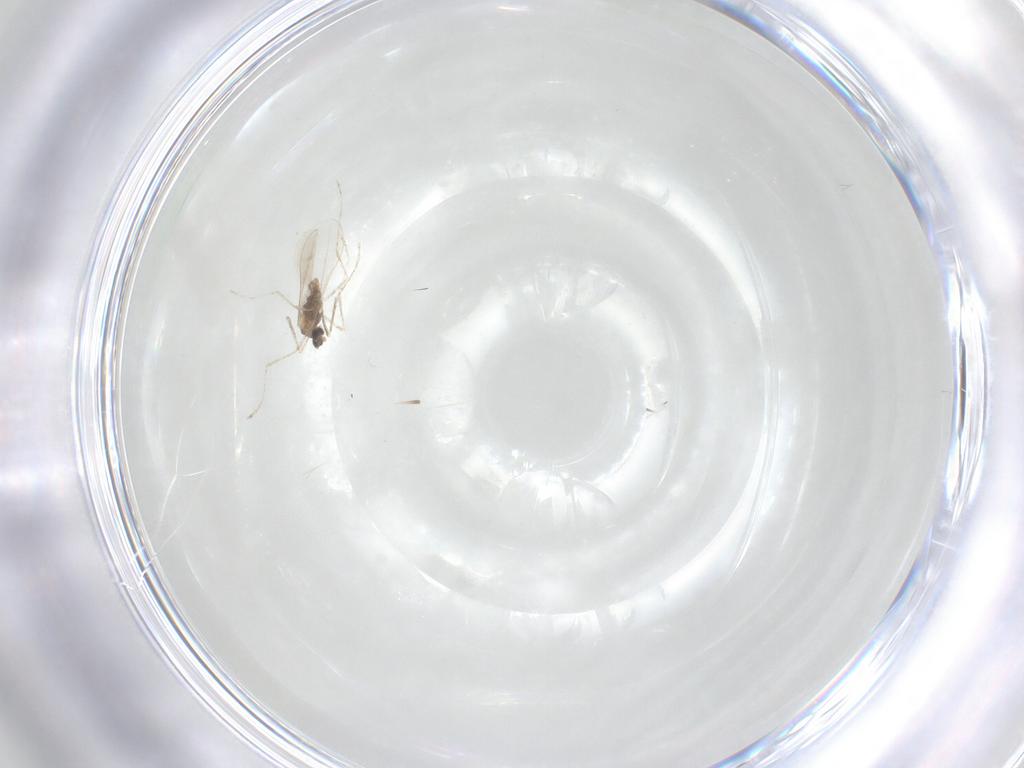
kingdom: Animalia
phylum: Arthropoda
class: Insecta
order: Diptera
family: Cecidomyiidae
